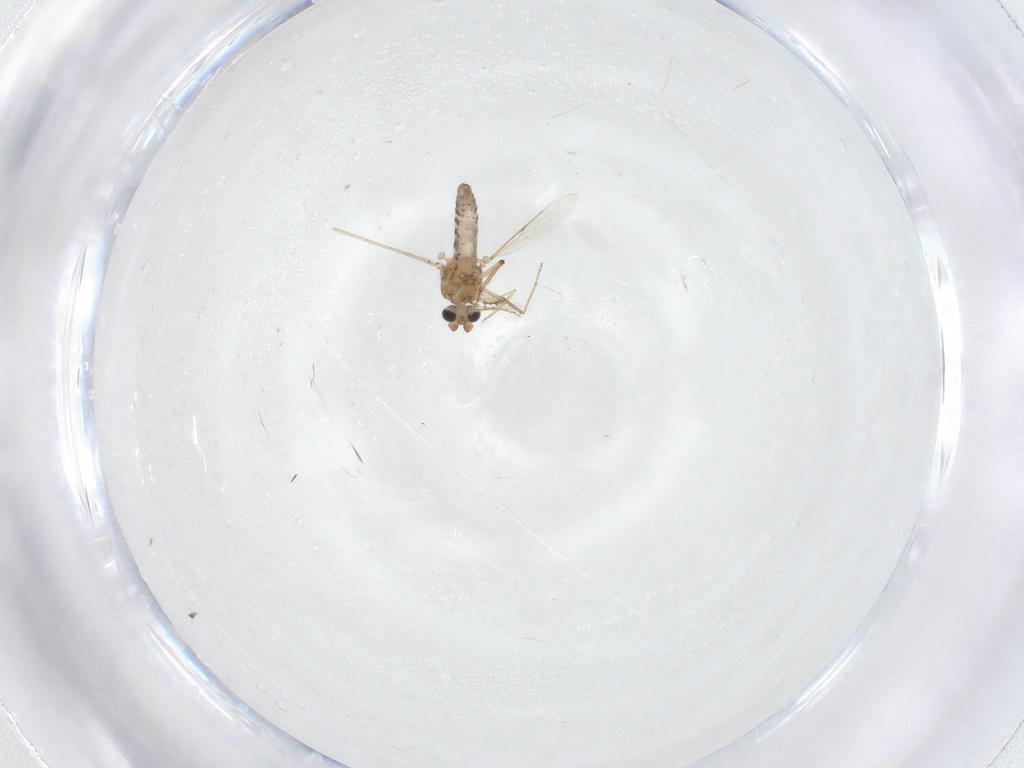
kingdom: Animalia
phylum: Arthropoda
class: Insecta
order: Diptera
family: Ceratopogonidae
